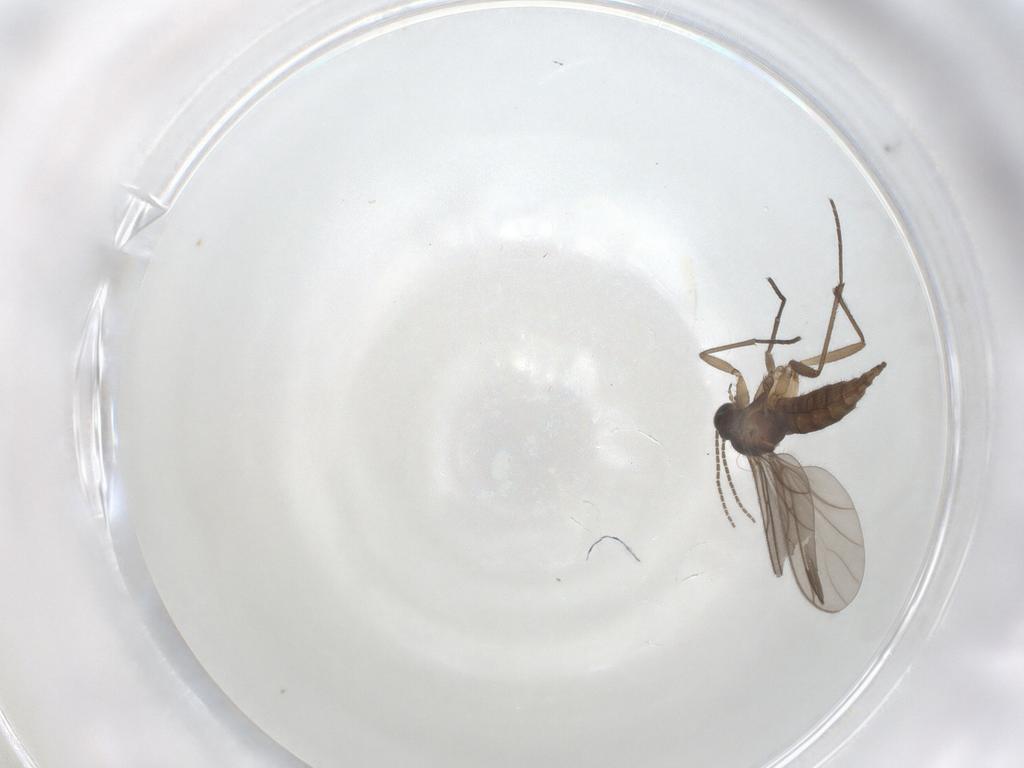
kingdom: Animalia
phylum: Arthropoda
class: Insecta
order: Diptera
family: Sciaridae
